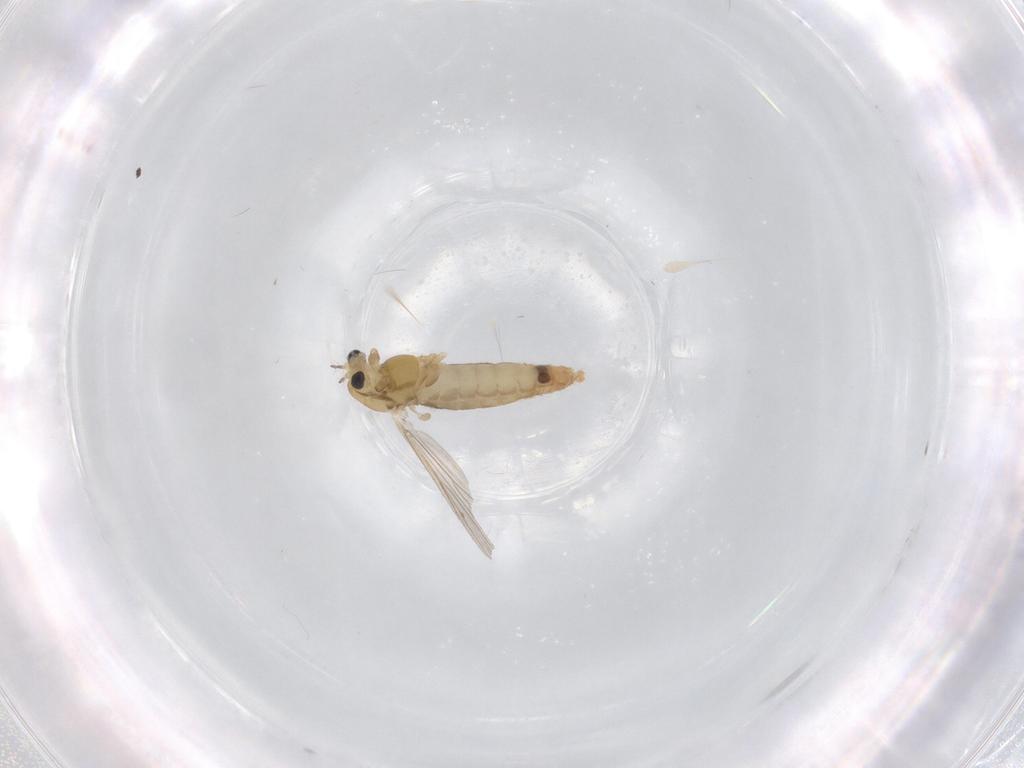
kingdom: Animalia
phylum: Arthropoda
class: Insecta
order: Diptera
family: Chironomidae
